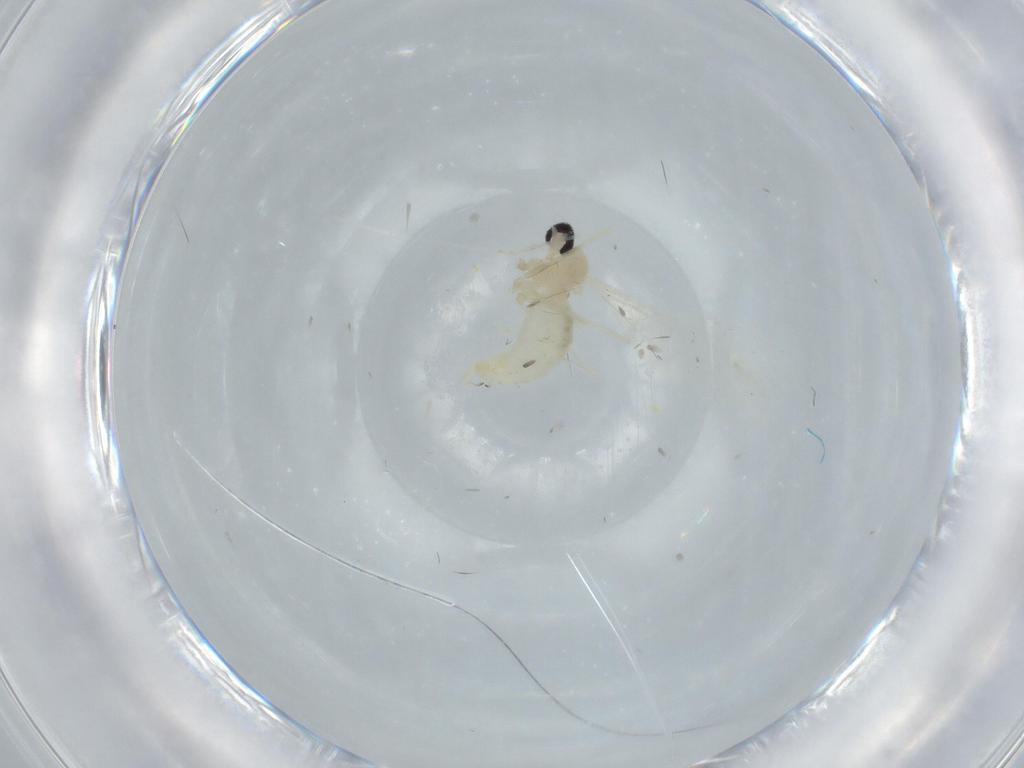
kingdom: Animalia
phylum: Arthropoda
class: Insecta
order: Diptera
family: Cecidomyiidae
